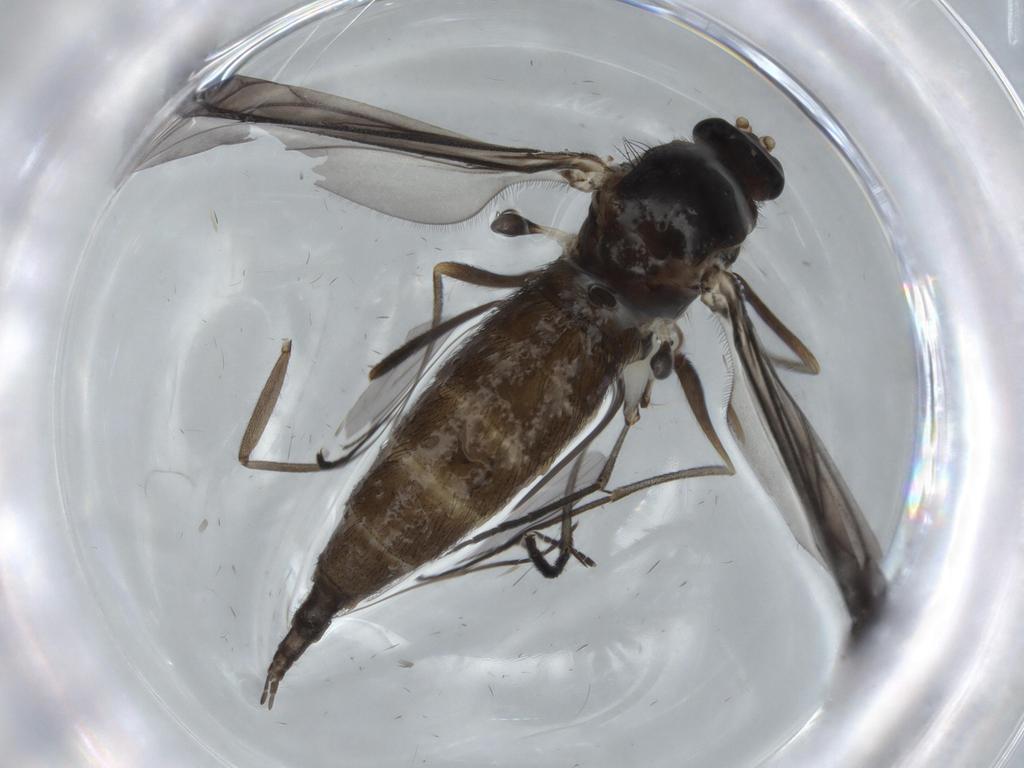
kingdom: Animalia
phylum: Arthropoda
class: Insecta
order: Diptera
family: Sciaridae
